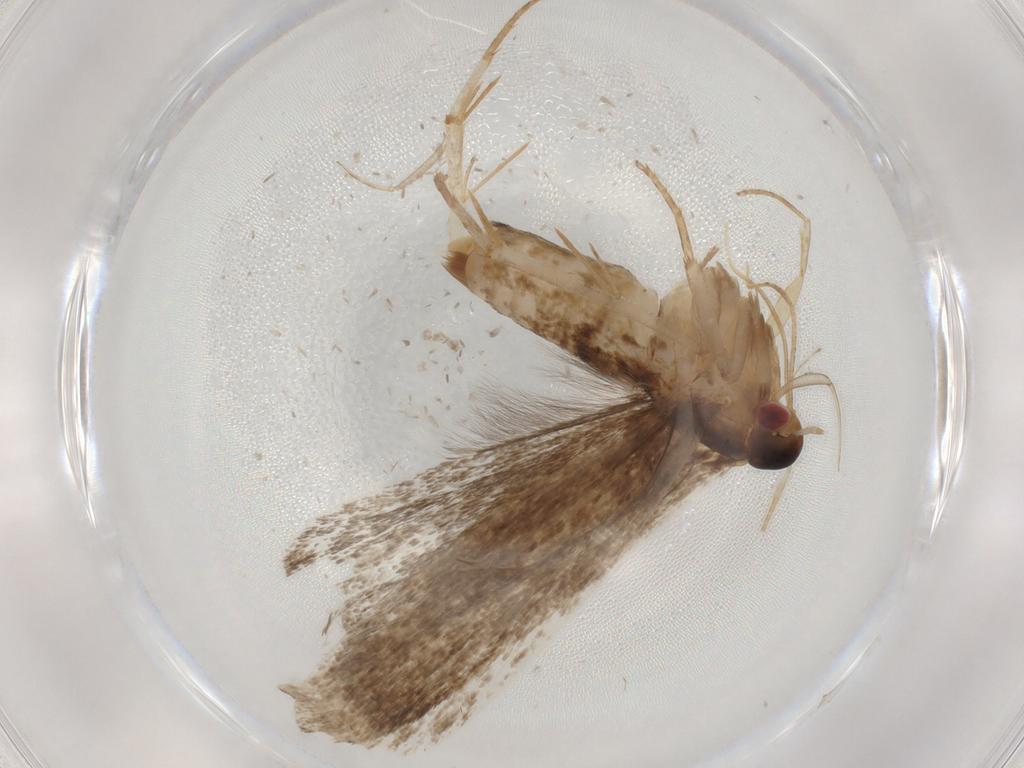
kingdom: Animalia
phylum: Arthropoda
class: Insecta
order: Lepidoptera
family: Gelechiidae
